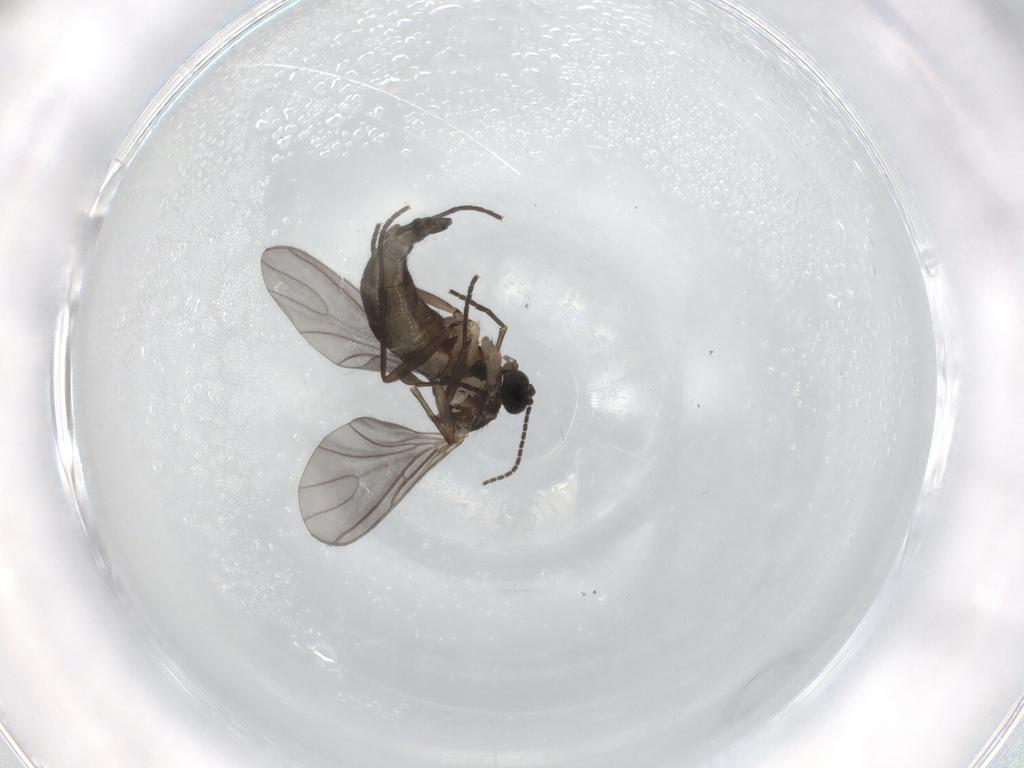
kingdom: Animalia
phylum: Arthropoda
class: Insecta
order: Diptera
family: Sciaridae
